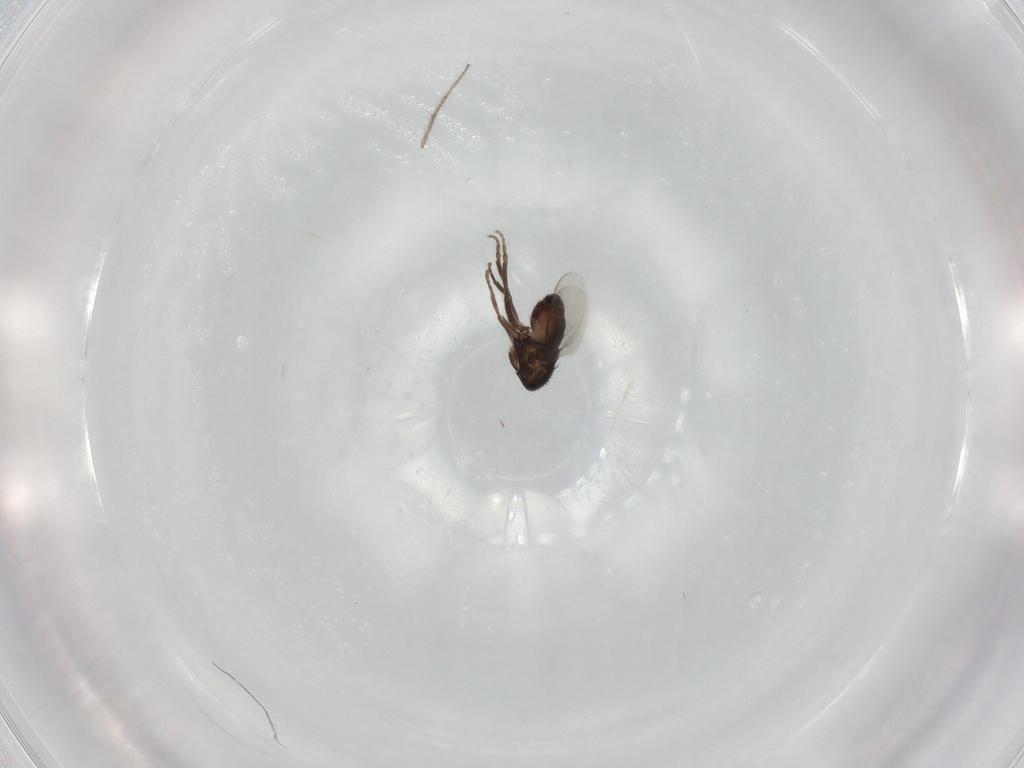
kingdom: Animalia
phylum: Arthropoda
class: Insecta
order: Diptera
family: Chironomidae
